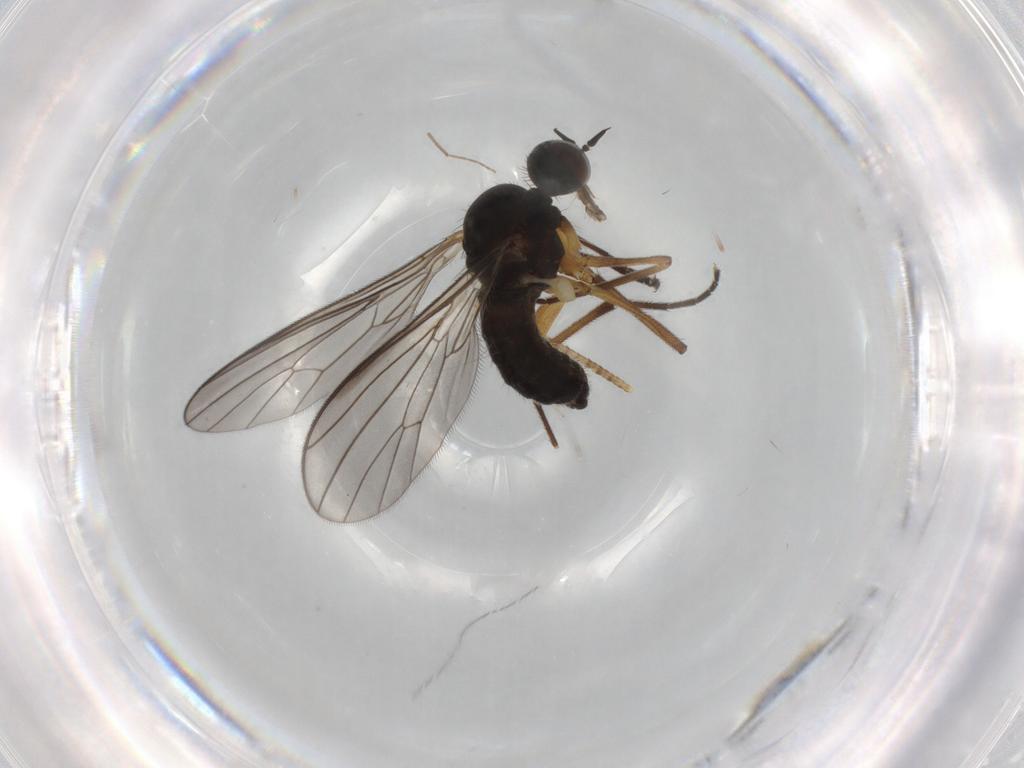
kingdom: Animalia
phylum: Arthropoda
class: Insecta
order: Diptera
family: Empididae
